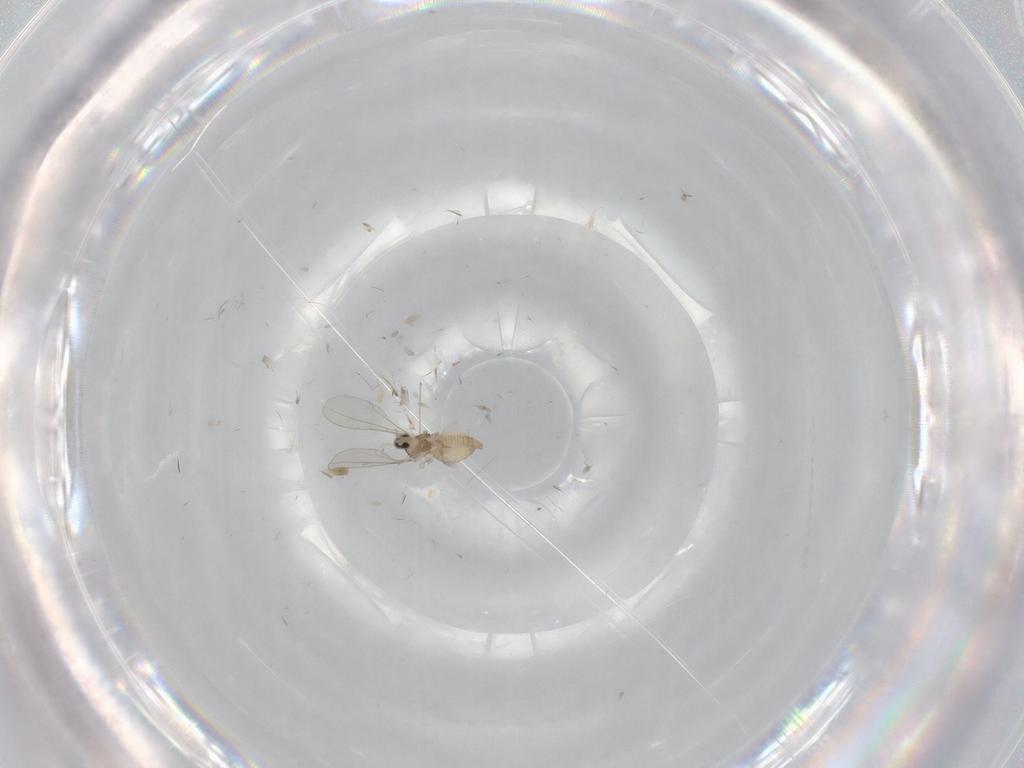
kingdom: Animalia
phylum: Arthropoda
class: Insecta
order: Diptera
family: Cecidomyiidae
